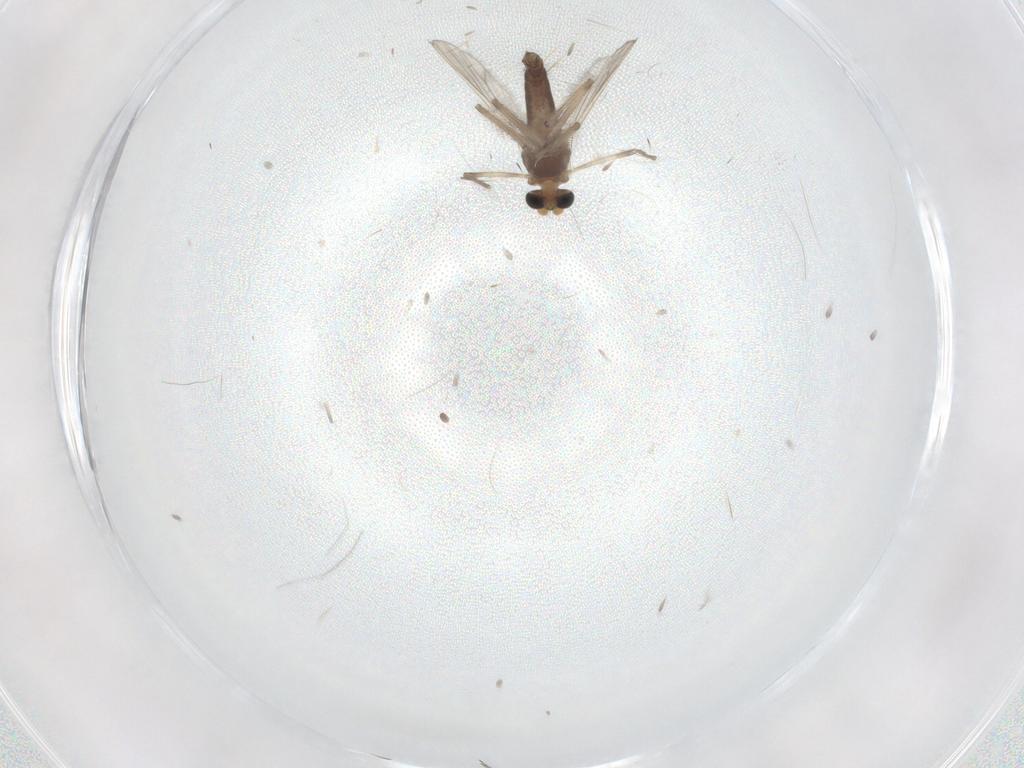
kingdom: Animalia
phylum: Arthropoda
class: Insecta
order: Diptera
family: Chironomidae
